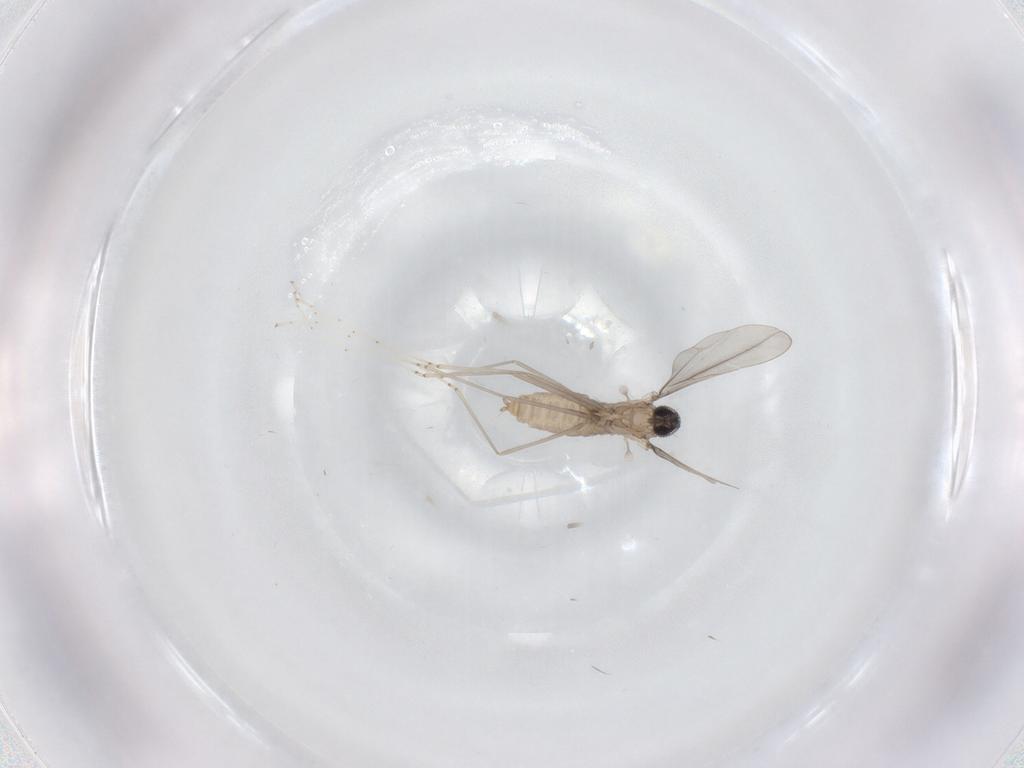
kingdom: Animalia
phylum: Arthropoda
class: Insecta
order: Diptera
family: Cecidomyiidae
